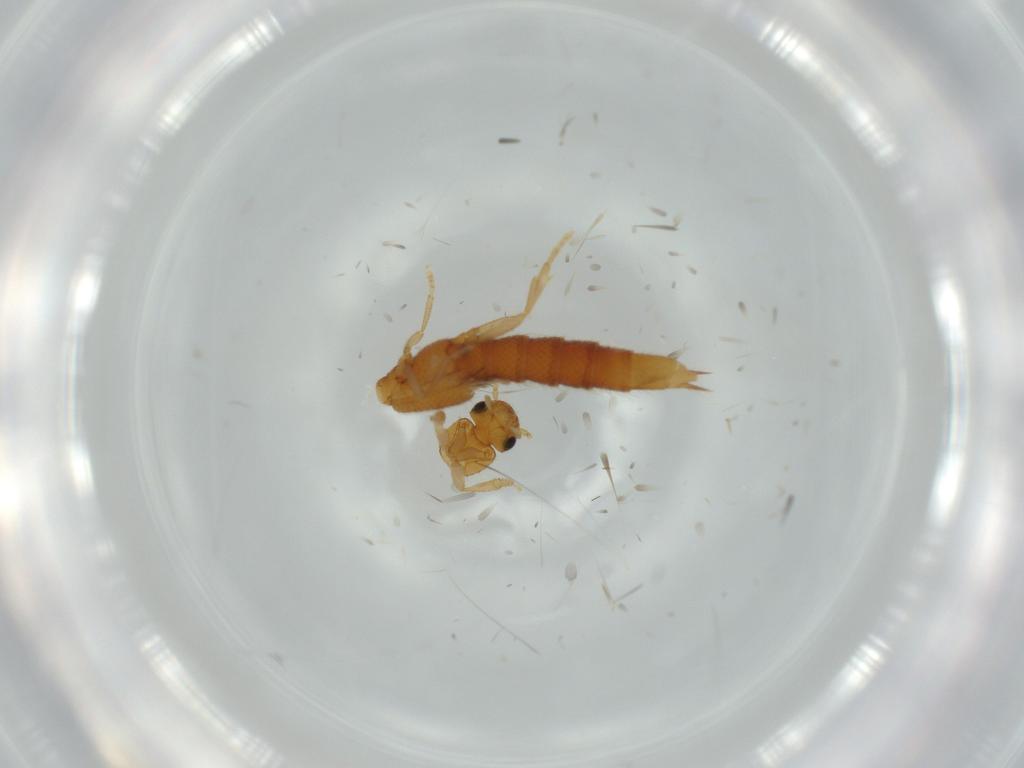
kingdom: Animalia
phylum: Arthropoda
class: Insecta
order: Coleoptera
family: Staphylinidae
